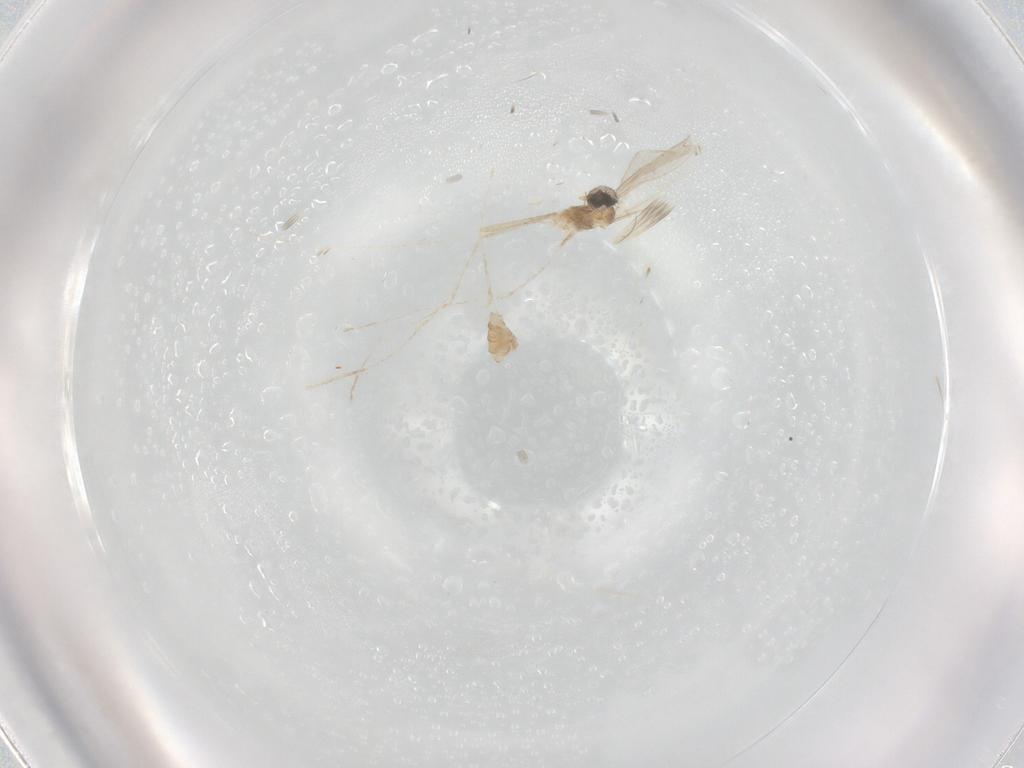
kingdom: Animalia
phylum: Arthropoda
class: Insecta
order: Diptera
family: Cecidomyiidae
